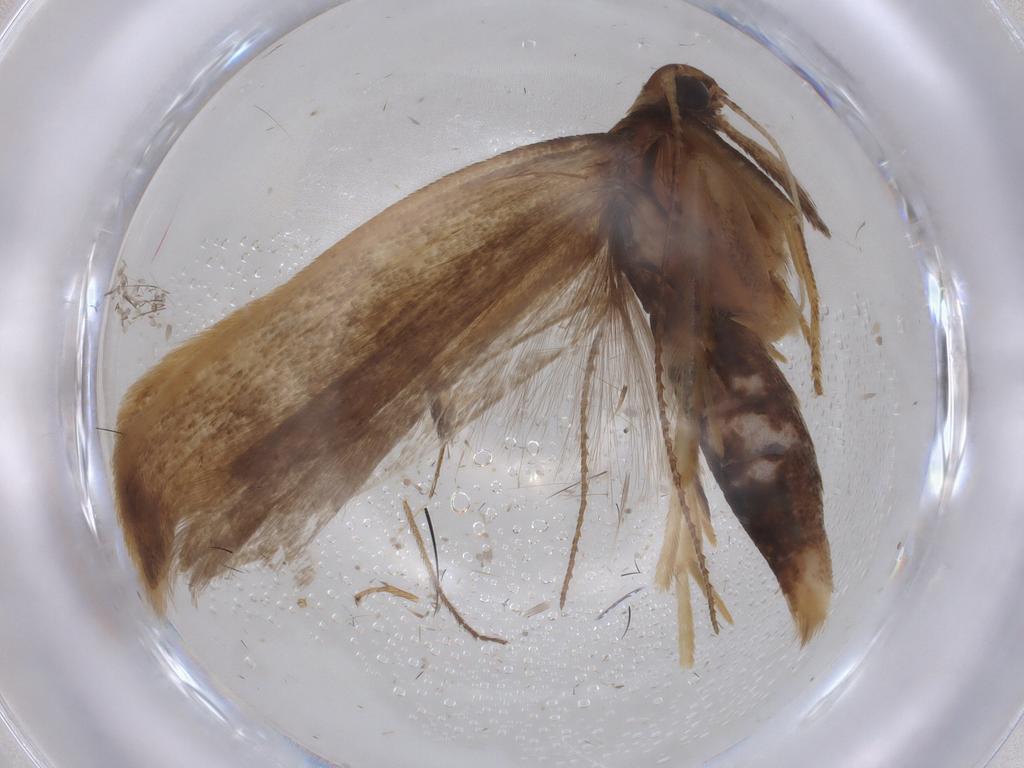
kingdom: Animalia
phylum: Arthropoda
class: Insecta
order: Lepidoptera
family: Gelechiidae
